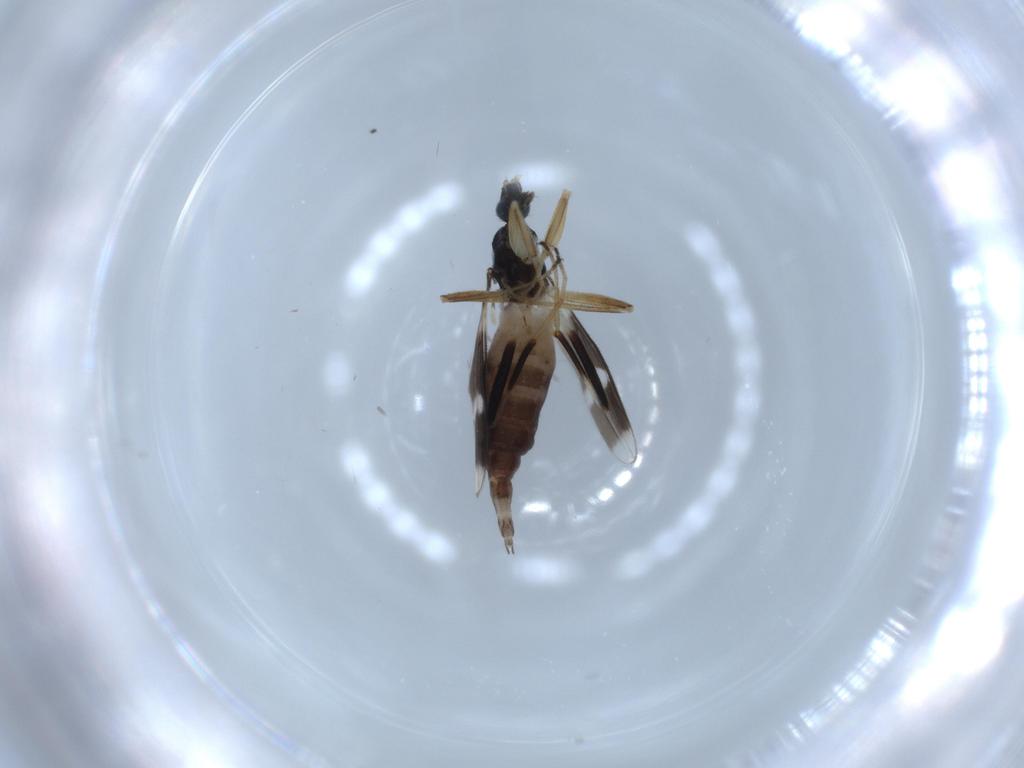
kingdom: Animalia
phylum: Arthropoda
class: Insecta
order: Diptera
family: Hybotidae
